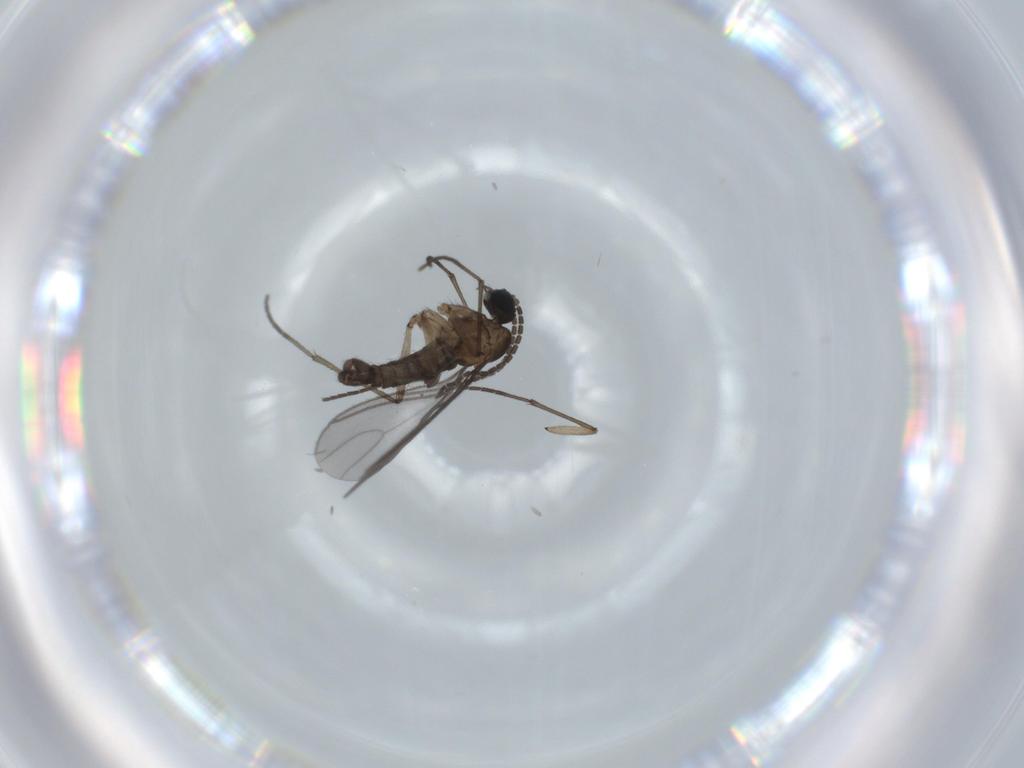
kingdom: Animalia
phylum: Arthropoda
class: Insecta
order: Diptera
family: Sciaridae
